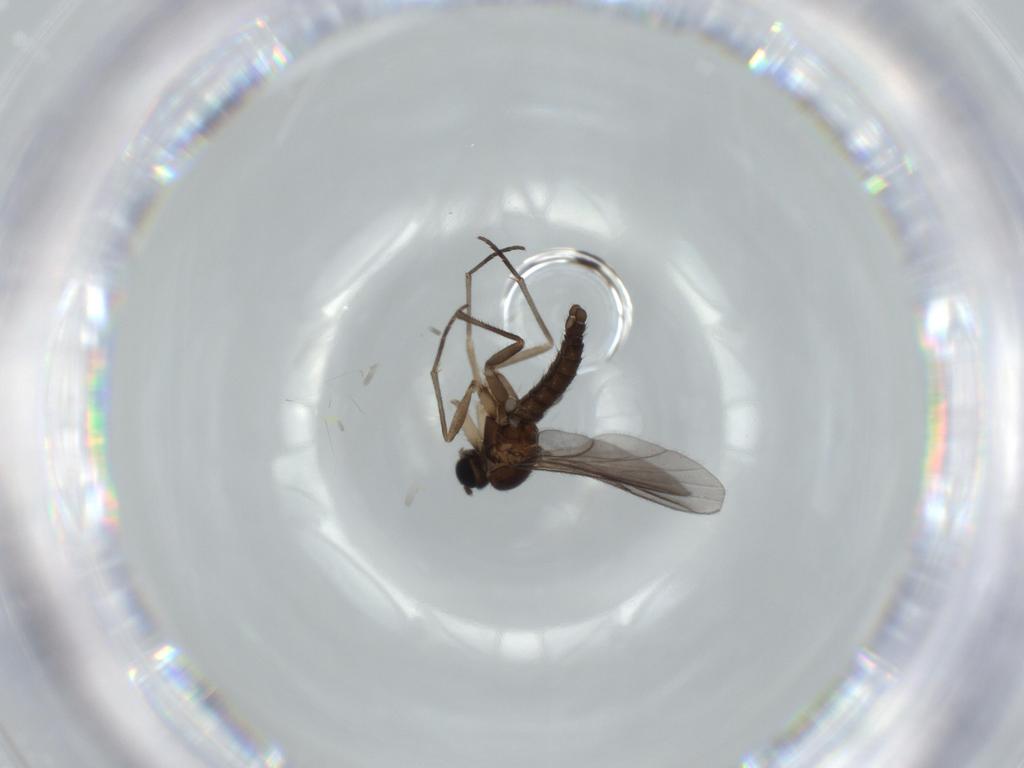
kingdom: Animalia
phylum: Arthropoda
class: Insecta
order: Diptera
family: Sciaridae
